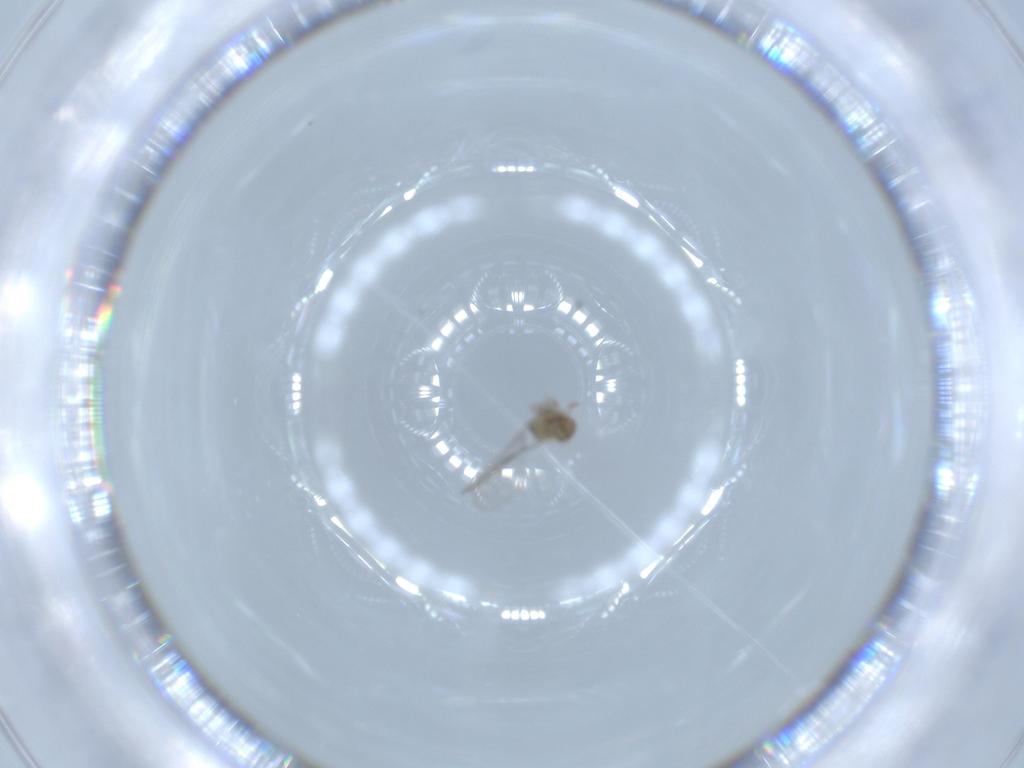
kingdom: Animalia
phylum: Arthropoda
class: Insecta
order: Diptera
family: Cecidomyiidae
